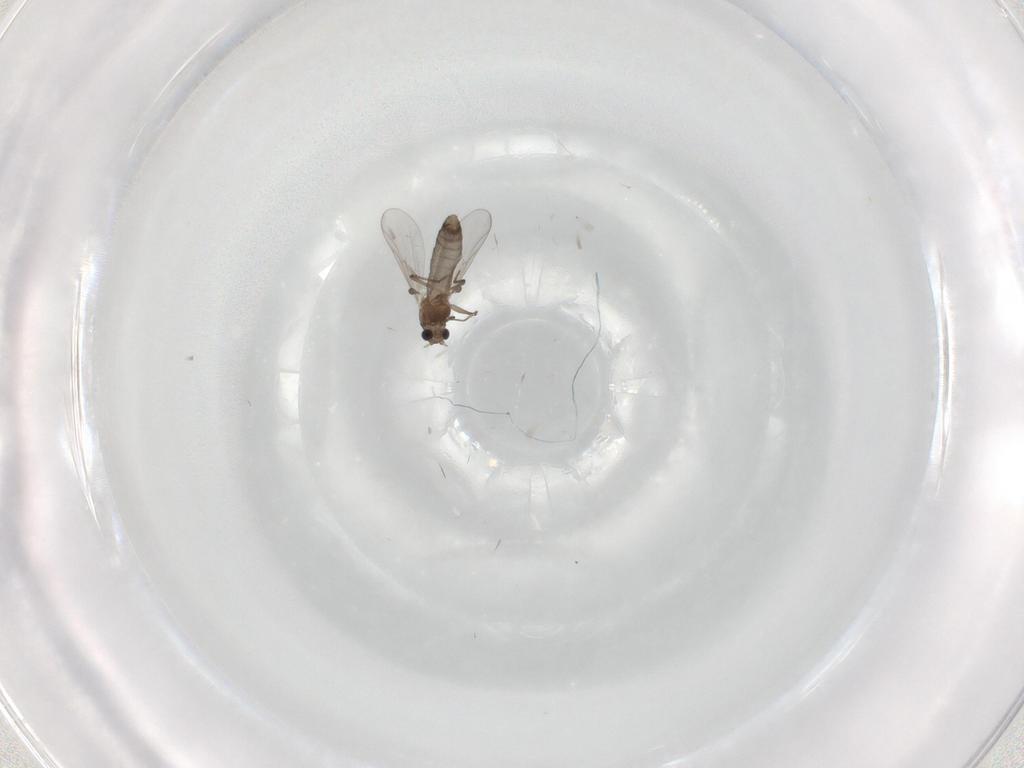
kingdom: Animalia
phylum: Arthropoda
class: Insecta
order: Diptera
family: Chironomidae
